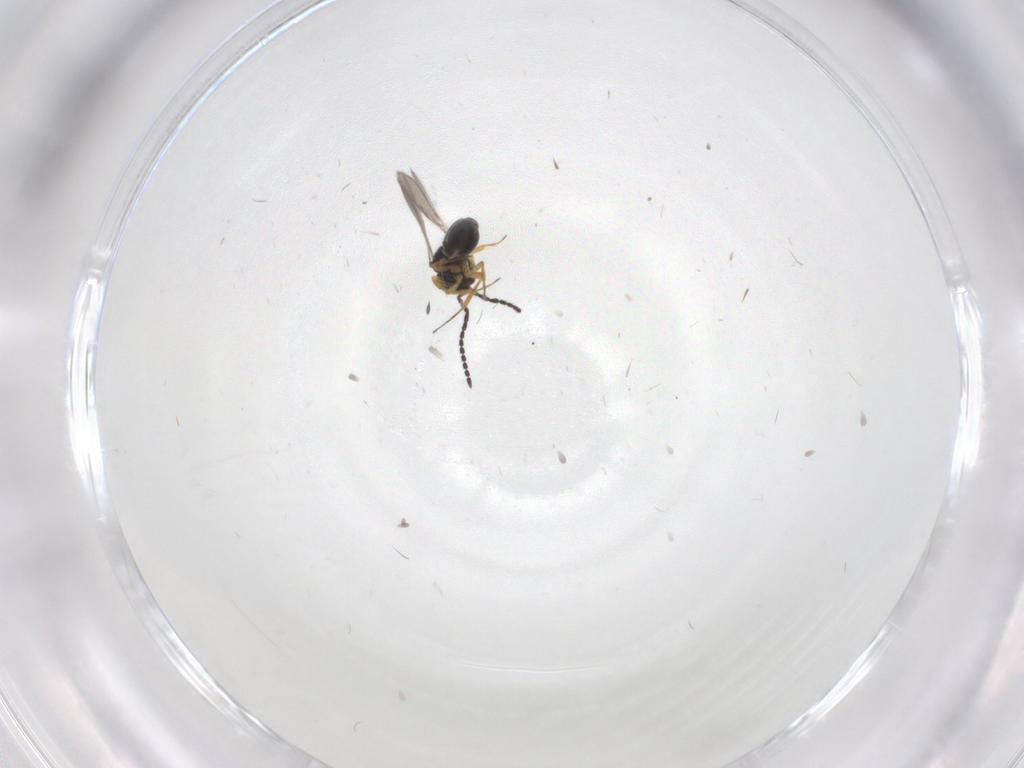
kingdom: Animalia
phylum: Arthropoda
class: Insecta
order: Hymenoptera
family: Scelionidae
